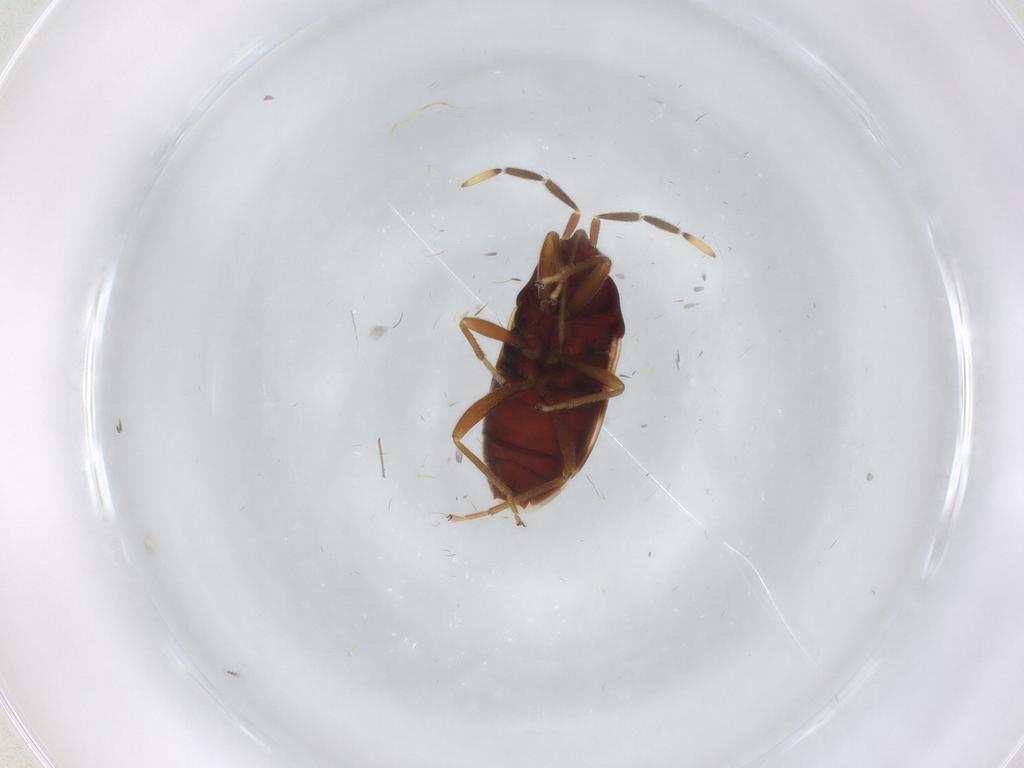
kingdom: Animalia
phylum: Arthropoda
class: Insecta
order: Hemiptera
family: Rhyparochromidae
